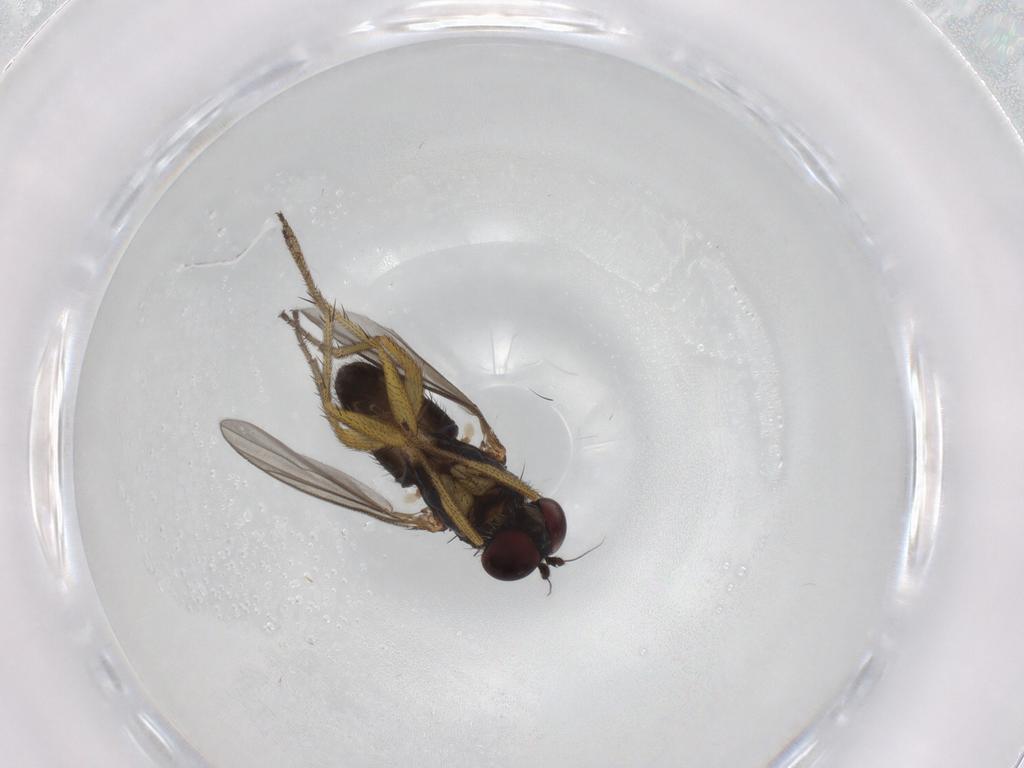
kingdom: Animalia
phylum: Arthropoda
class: Insecta
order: Diptera
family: Dolichopodidae
